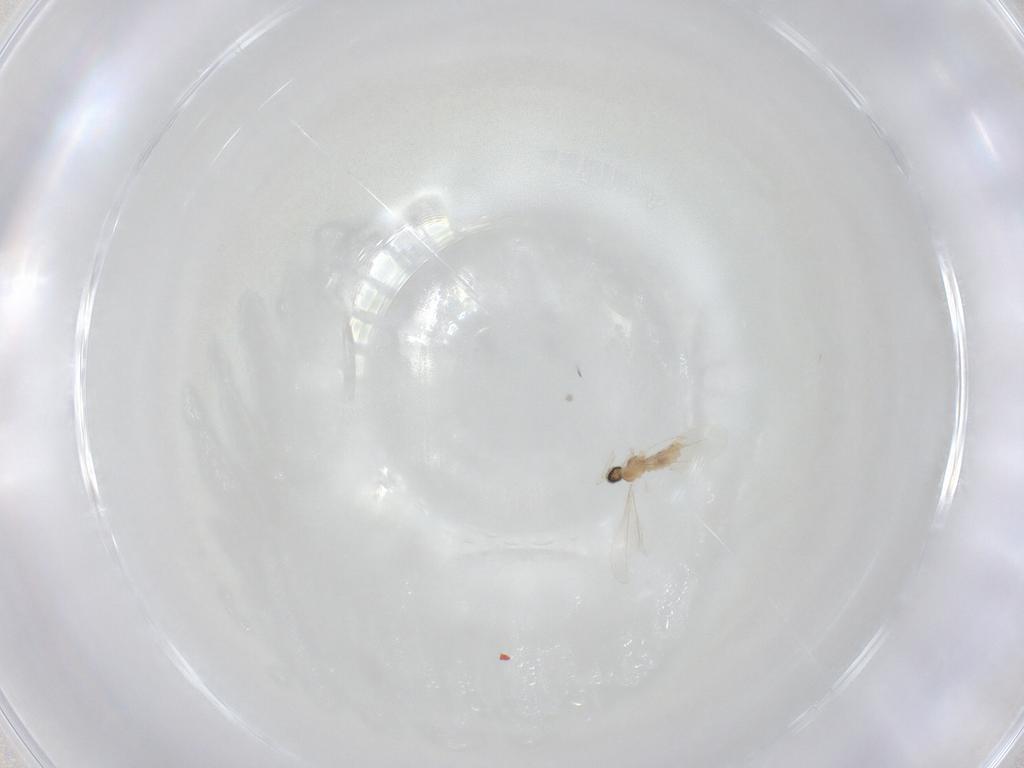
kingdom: Animalia
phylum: Arthropoda
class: Insecta
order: Diptera
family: Cecidomyiidae
